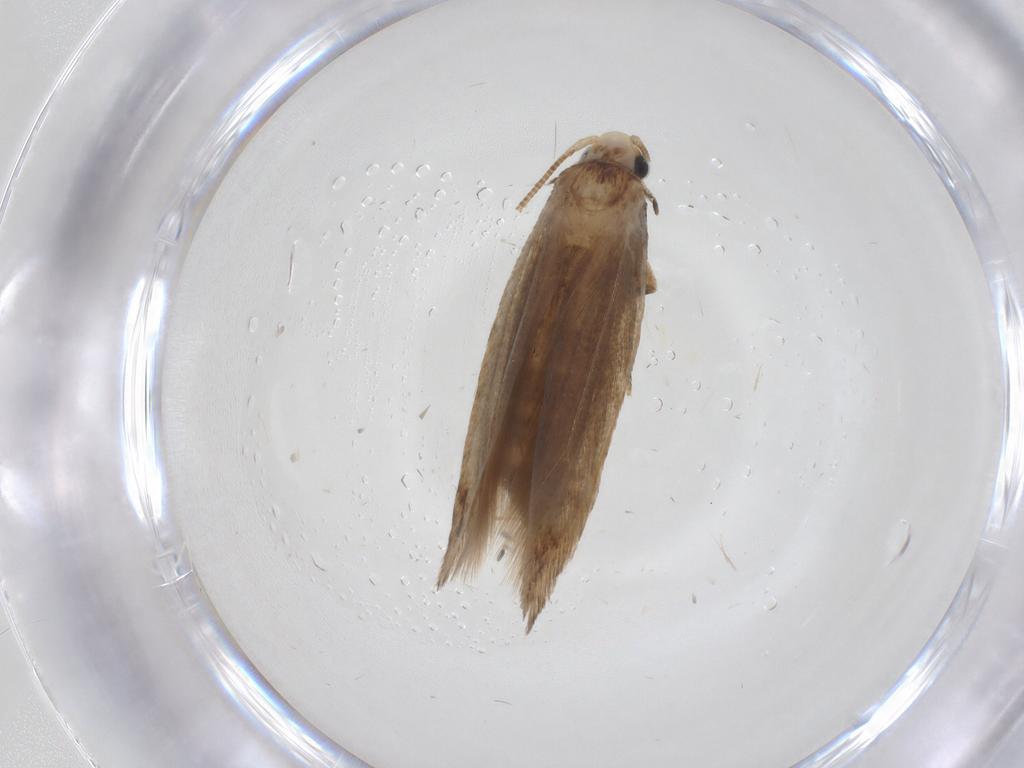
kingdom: Animalia
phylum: Arthropoda
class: Insecta
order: Lepidoptera
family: Tineidae
